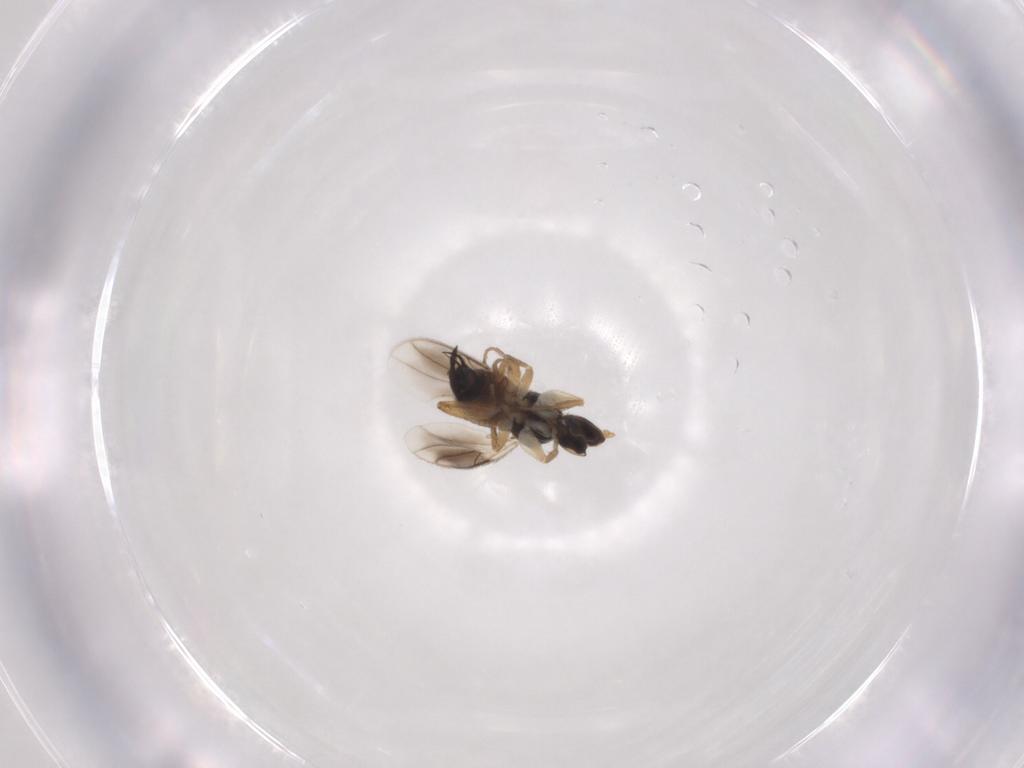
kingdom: Animalia
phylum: Arthropoda
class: Insecta
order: Diptera
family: Hybotidae
